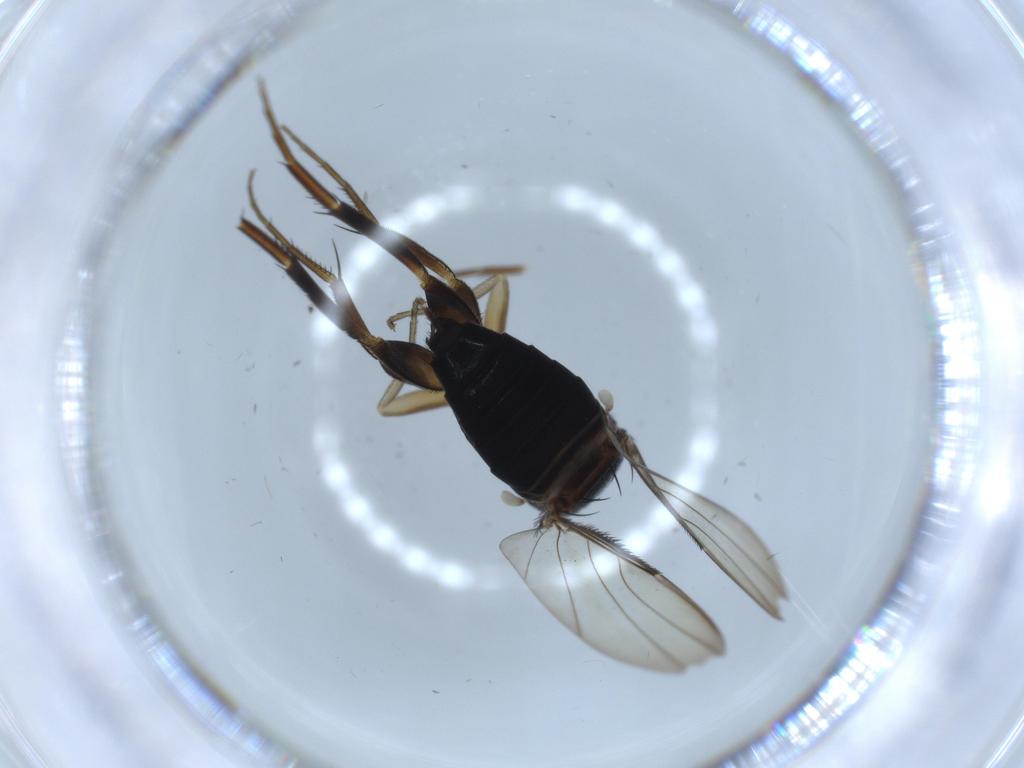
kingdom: Animalia
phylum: Arthropoda
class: Insecta
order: Diptera
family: Phoridae
